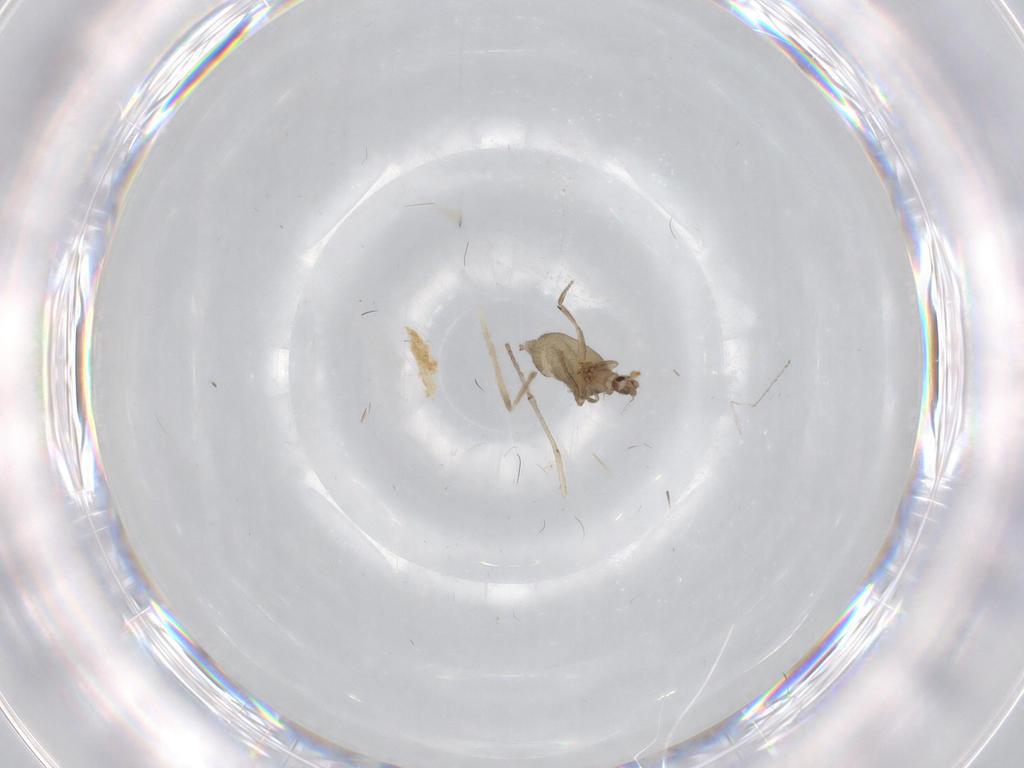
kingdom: Animalia
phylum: Arthropoda
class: Insecta
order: Diptera
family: Chironomidae
